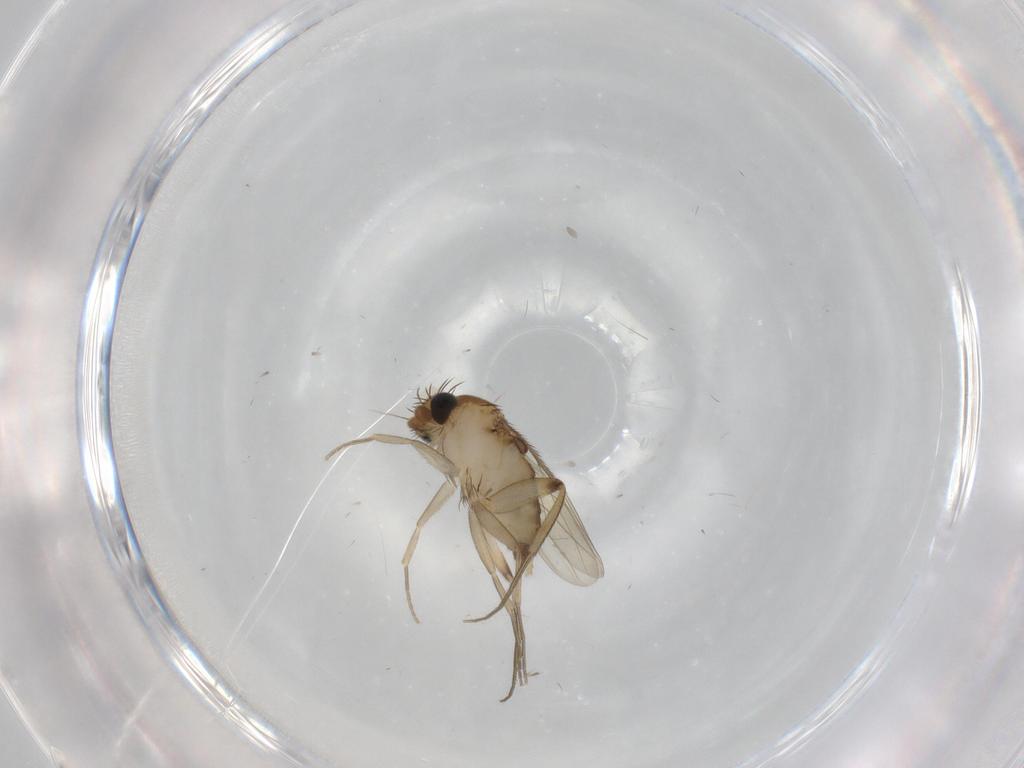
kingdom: Animalia
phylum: Arthropoda
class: Insecta
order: Diptera
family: Phoridae
